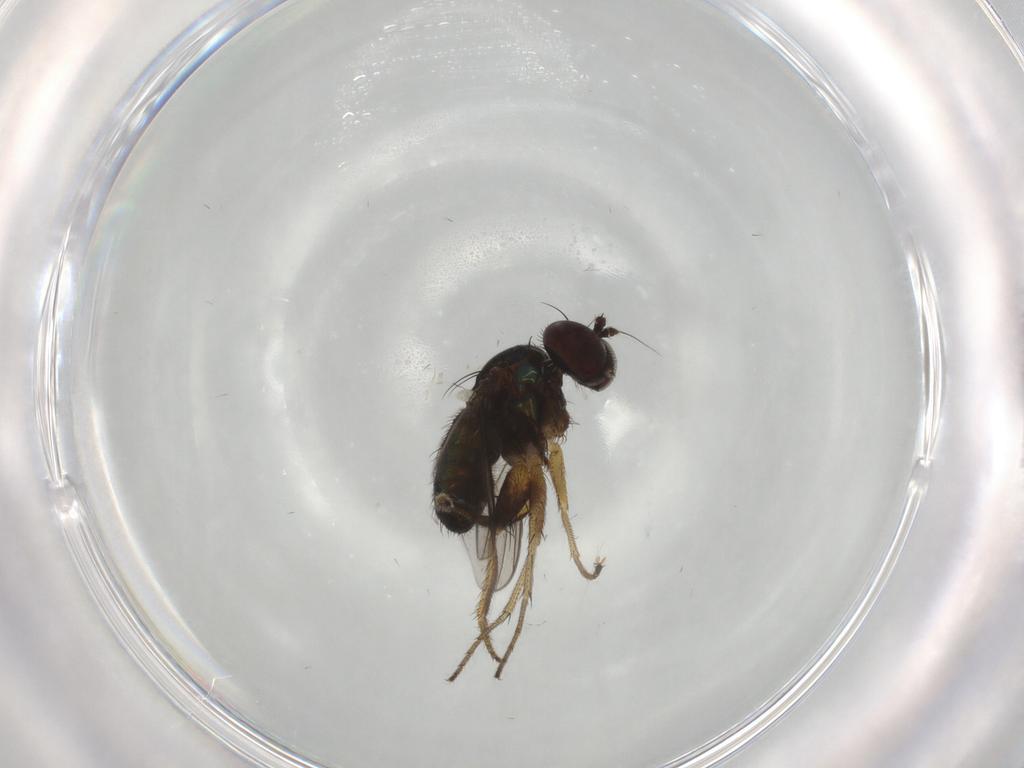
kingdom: Animalia
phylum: Arthropoda
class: Insecta
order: Diptera
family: Dolichopodidae
